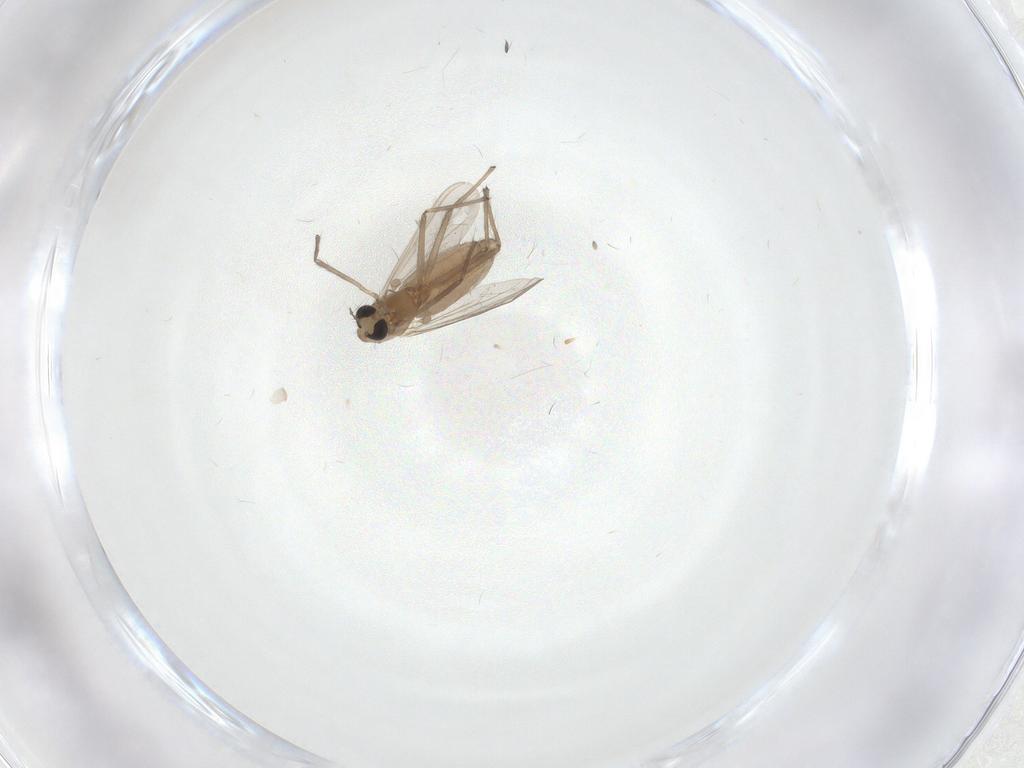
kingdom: Animalia
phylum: Arthropoda
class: Insecta
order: Diptera
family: Chironomidae
